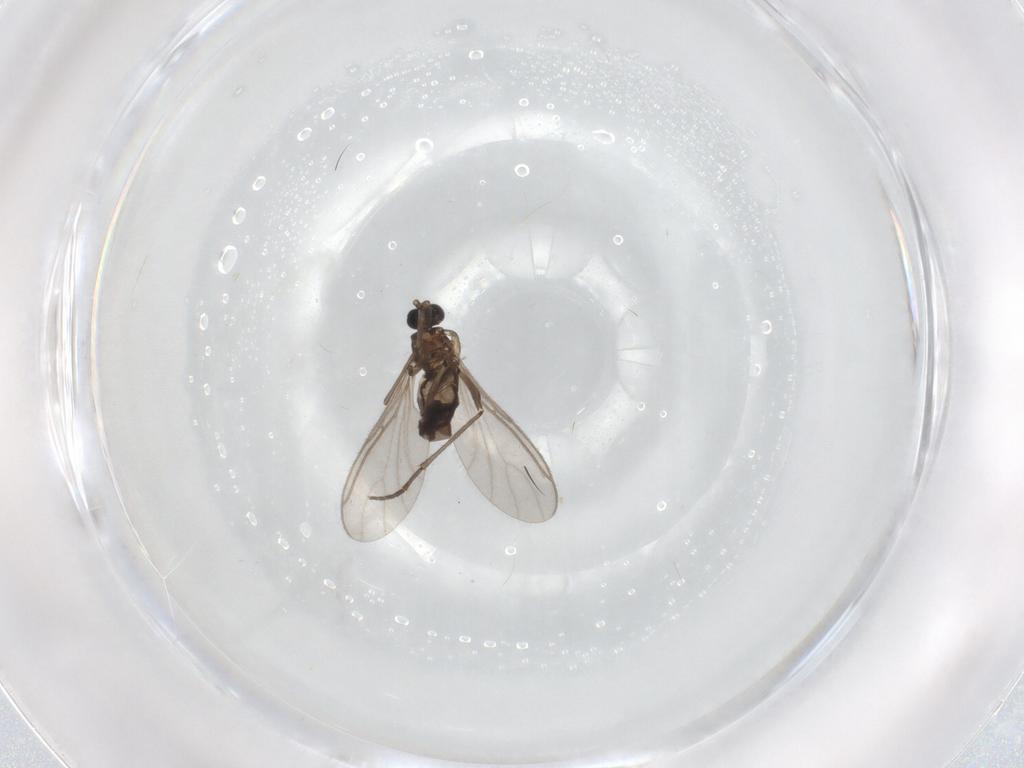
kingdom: Animalia
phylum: Arthropoda
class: Insecta
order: Diptera
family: Sciaridae
